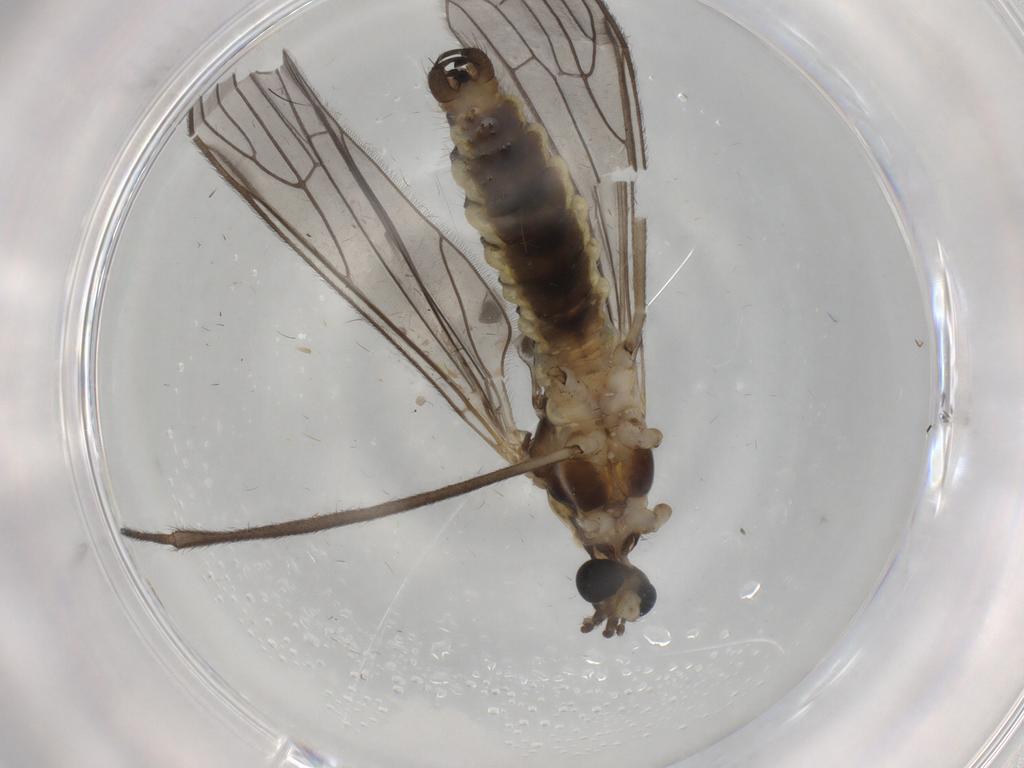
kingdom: Animalia
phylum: Arthropoda
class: Insecta
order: Diptera
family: Limoniidae
